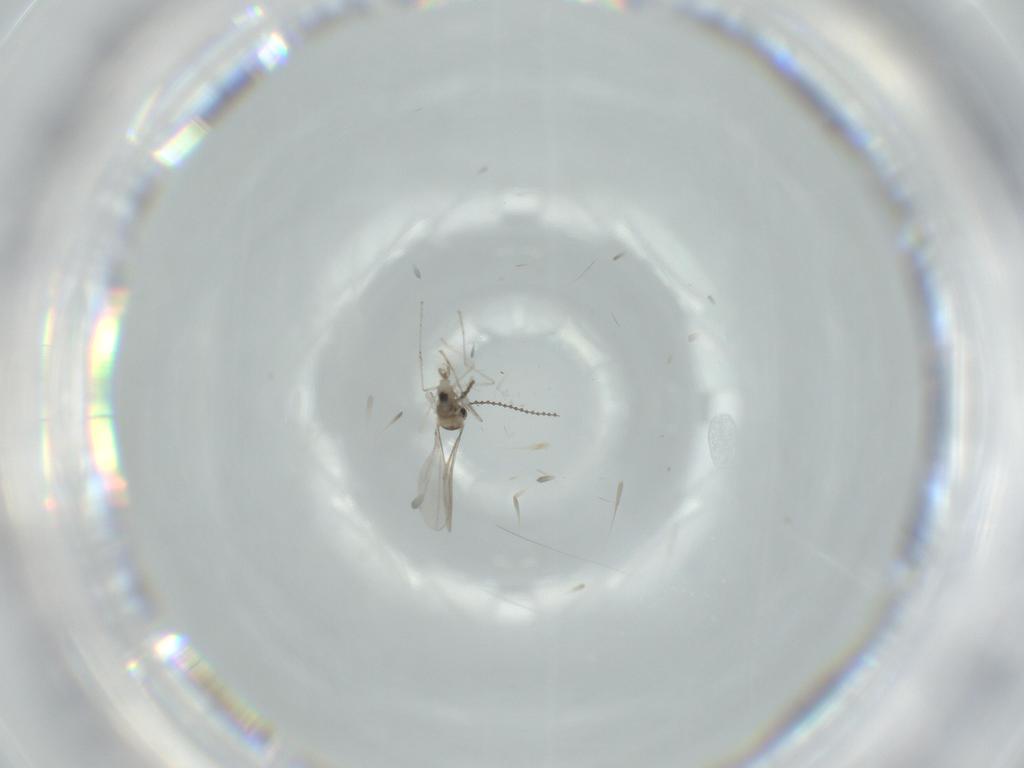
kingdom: Animalia
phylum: Arthropoda
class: Insecta
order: Diptera
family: Cecidomyiidae
